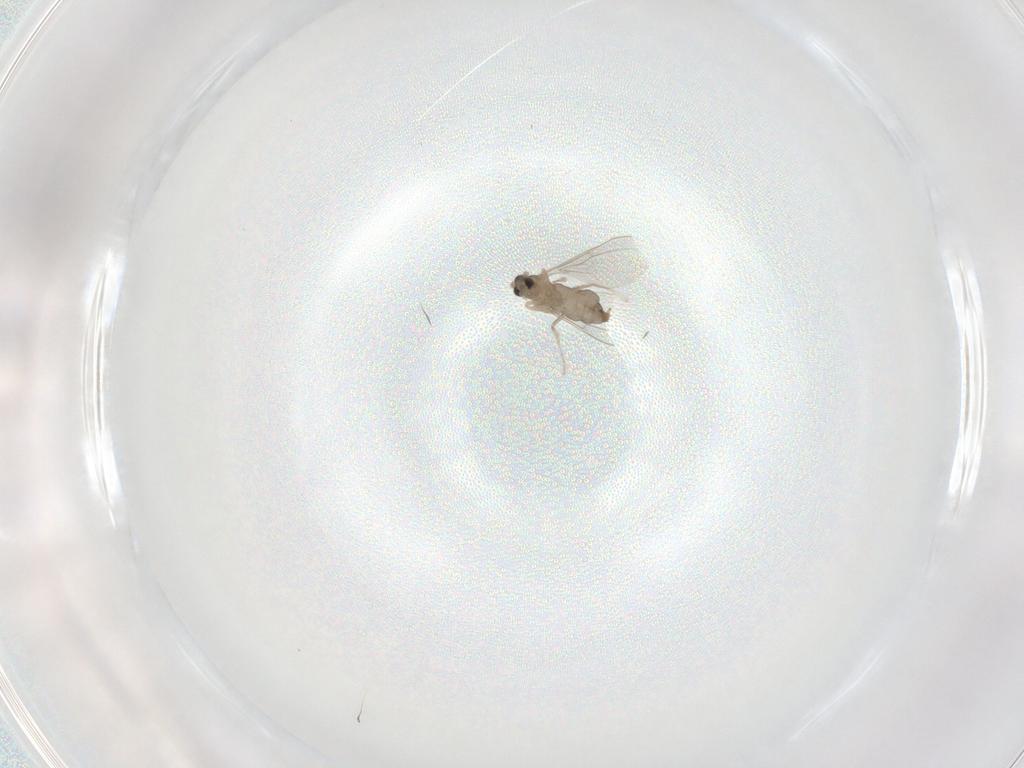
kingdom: Animalia
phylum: Arthropoda
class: Insecta
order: Diptera
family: Cecidomyiidae
